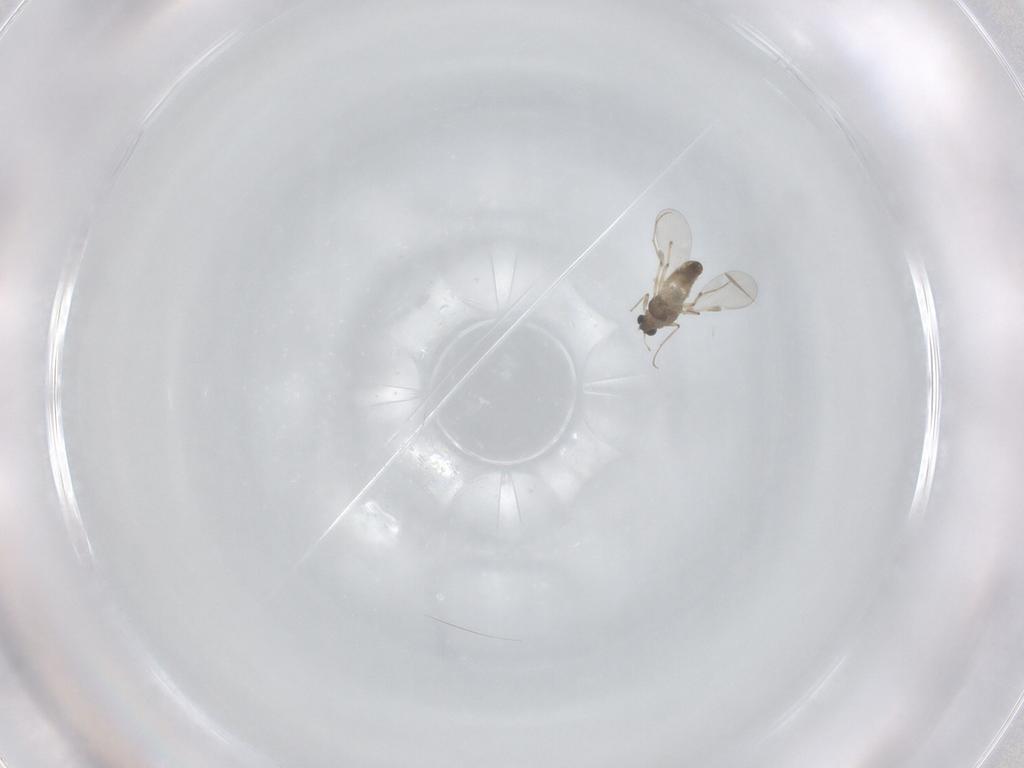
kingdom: Animalia
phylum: Arthropoda
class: Insecta
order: Diptera
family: Chironomidae
